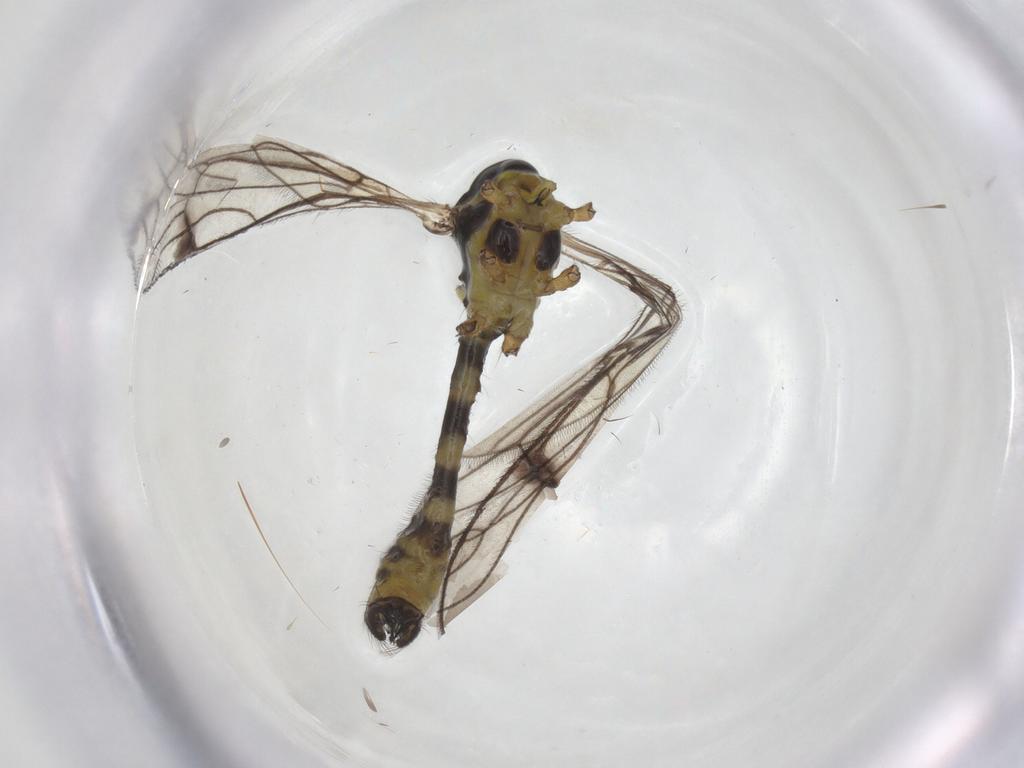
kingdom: Animalia
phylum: Arthropoda
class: Insecta
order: Diptera
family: Limoniidae
